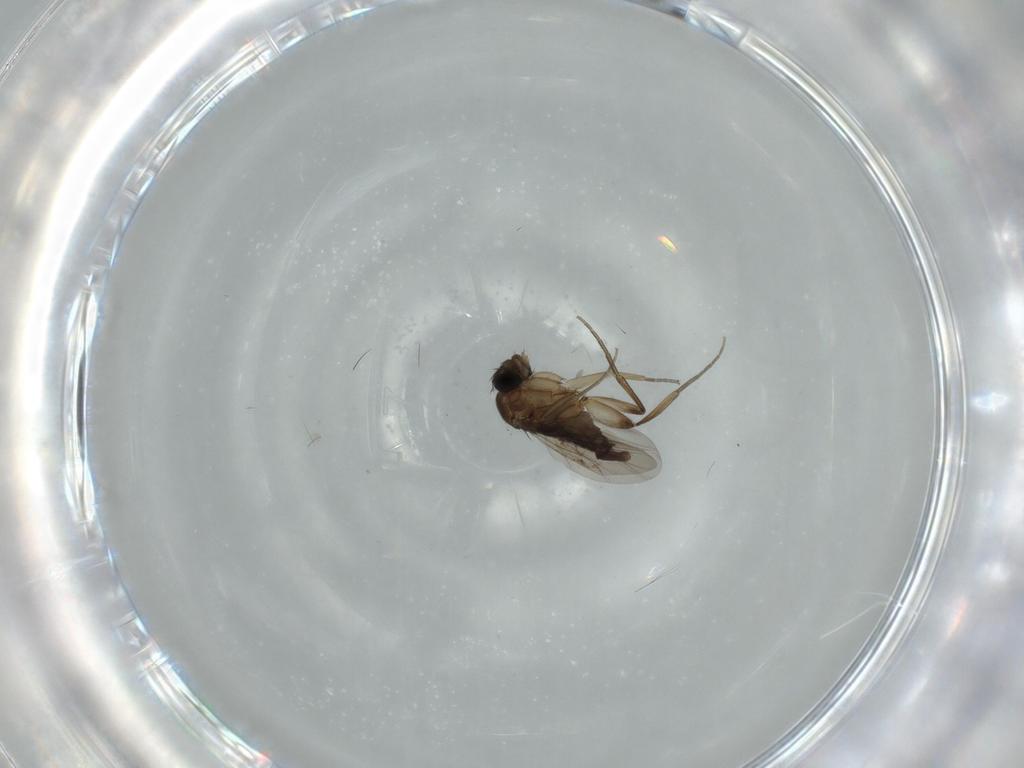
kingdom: Animalia
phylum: Arthropoda
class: Insecta
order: Diptera
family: Phoridae
